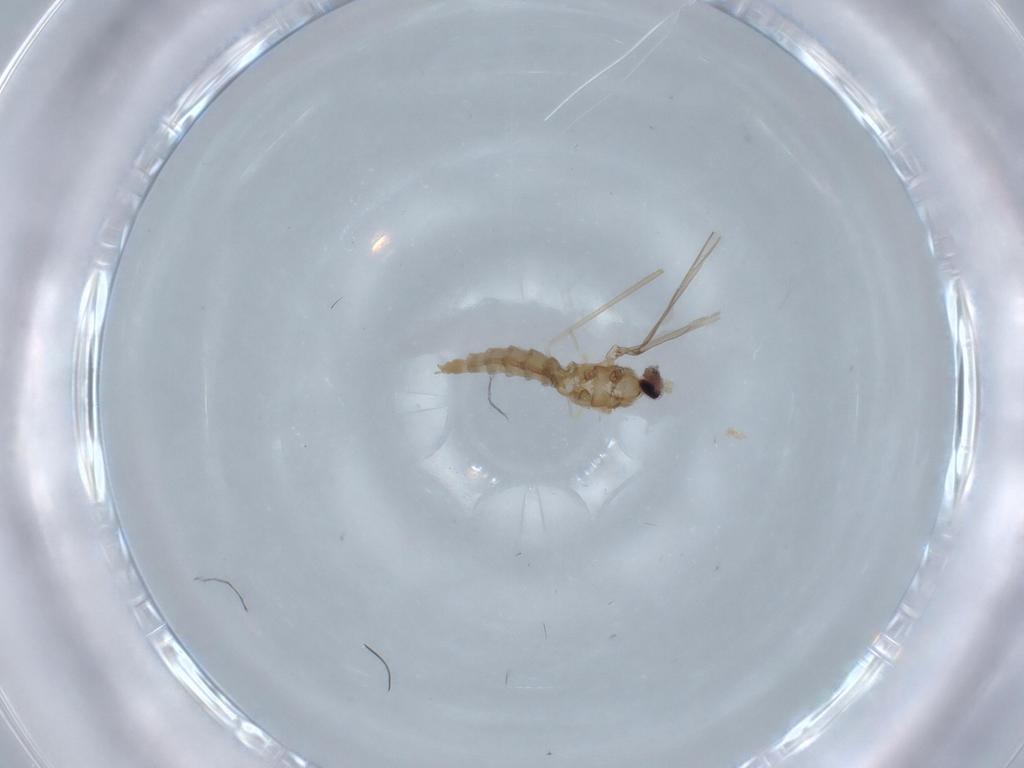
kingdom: Animalia
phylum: Arthropoda
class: Insecta
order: Diptera
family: Cecidomyiidae
